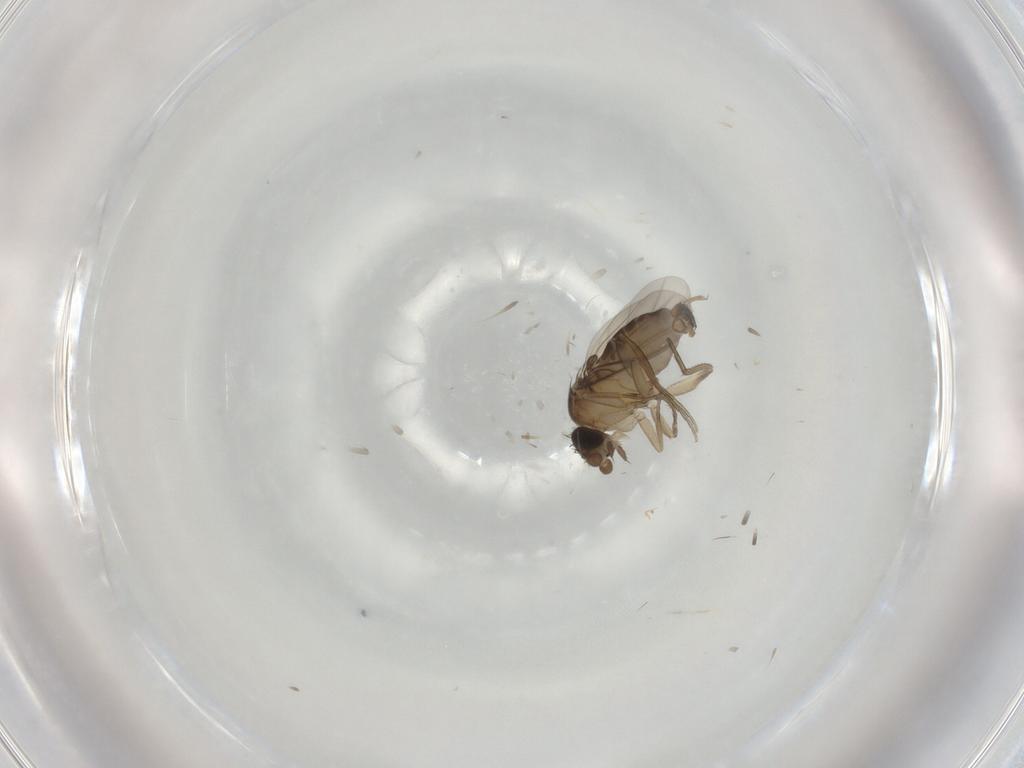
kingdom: Animalia
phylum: Arthropoda
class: Insecta
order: Diptera
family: Phoridae
